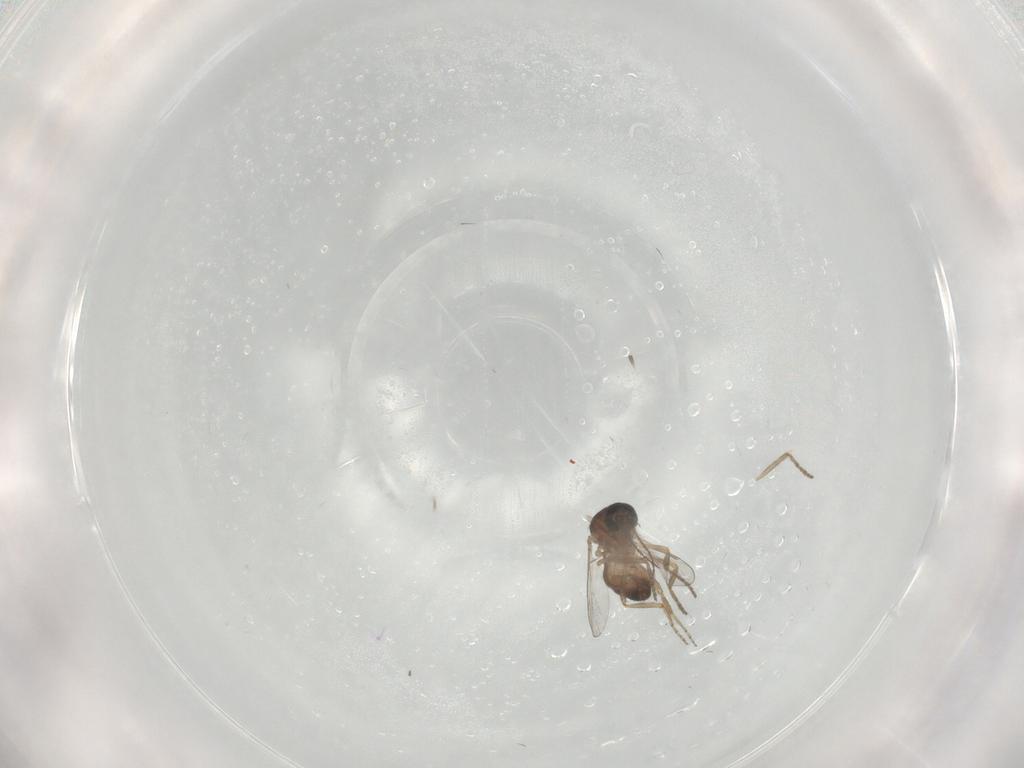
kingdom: Animalia
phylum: Arthropoda
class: Insecta
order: Diptera
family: Ceratopogonidae
